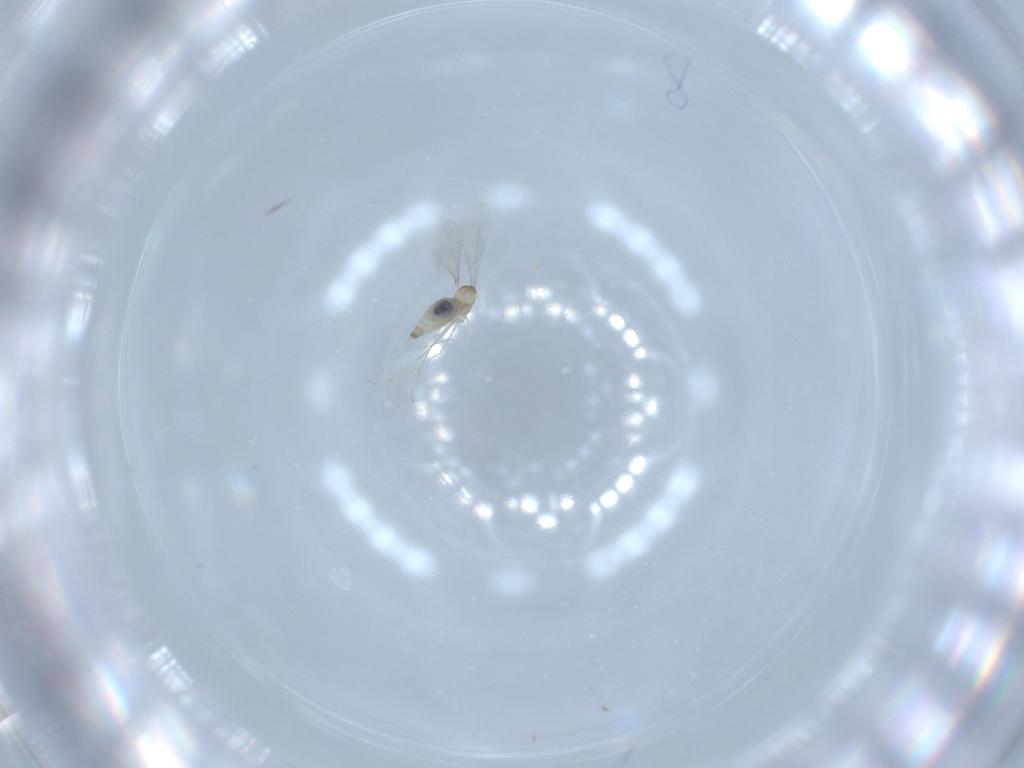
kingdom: Animalia
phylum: Arthropoda
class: Insecta
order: Diptera
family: Cecidomyiidae
